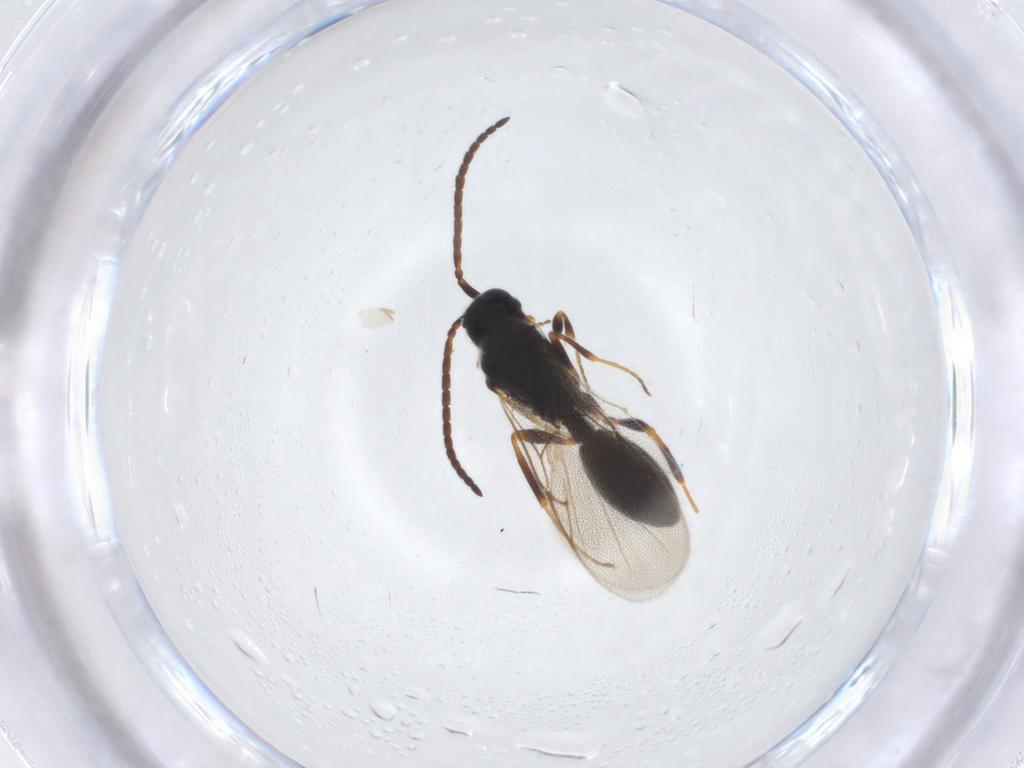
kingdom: Animalia
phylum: Arthropoda
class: Insecta
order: Hymenoptera
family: Diapriidae
